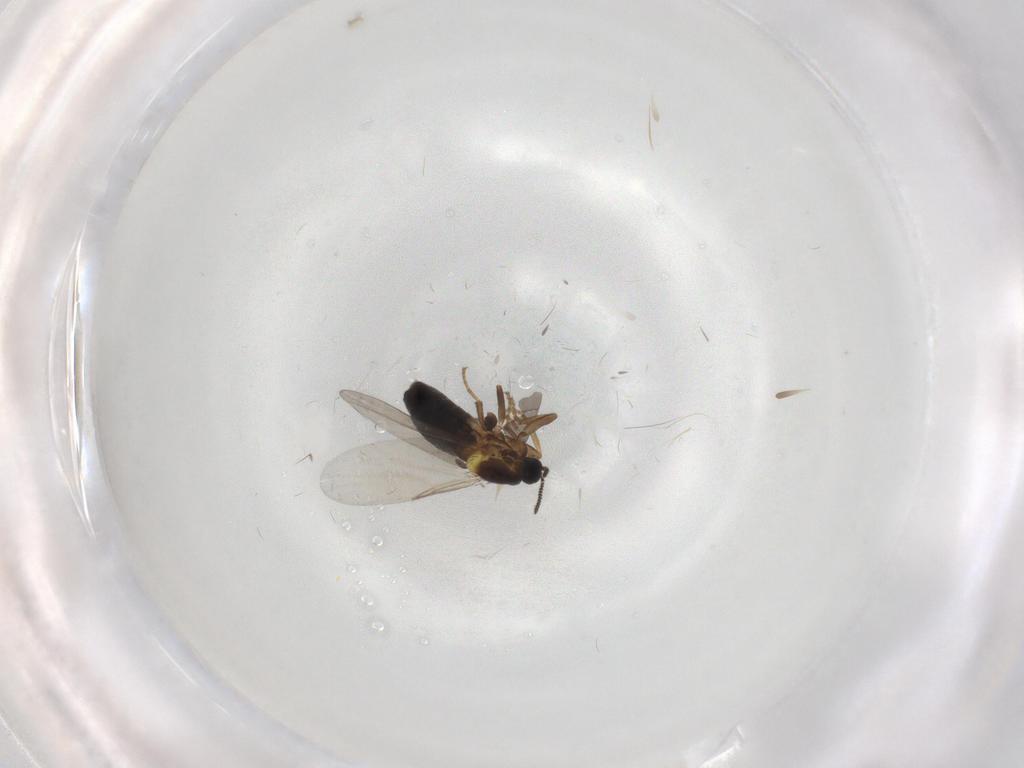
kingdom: Animalia
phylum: Arthropoda
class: Insecta
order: Diptera
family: Scatopsidae
